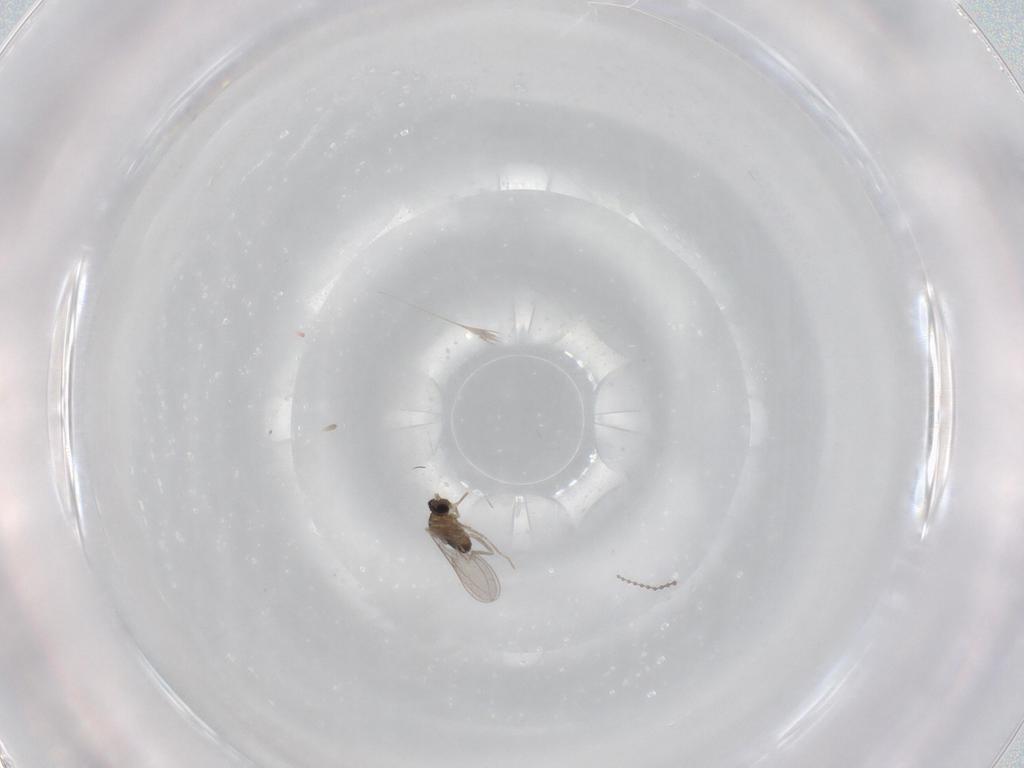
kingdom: Animalia
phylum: Arthropoda
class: Insecta
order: Diptera
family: Cecidomyiidae
